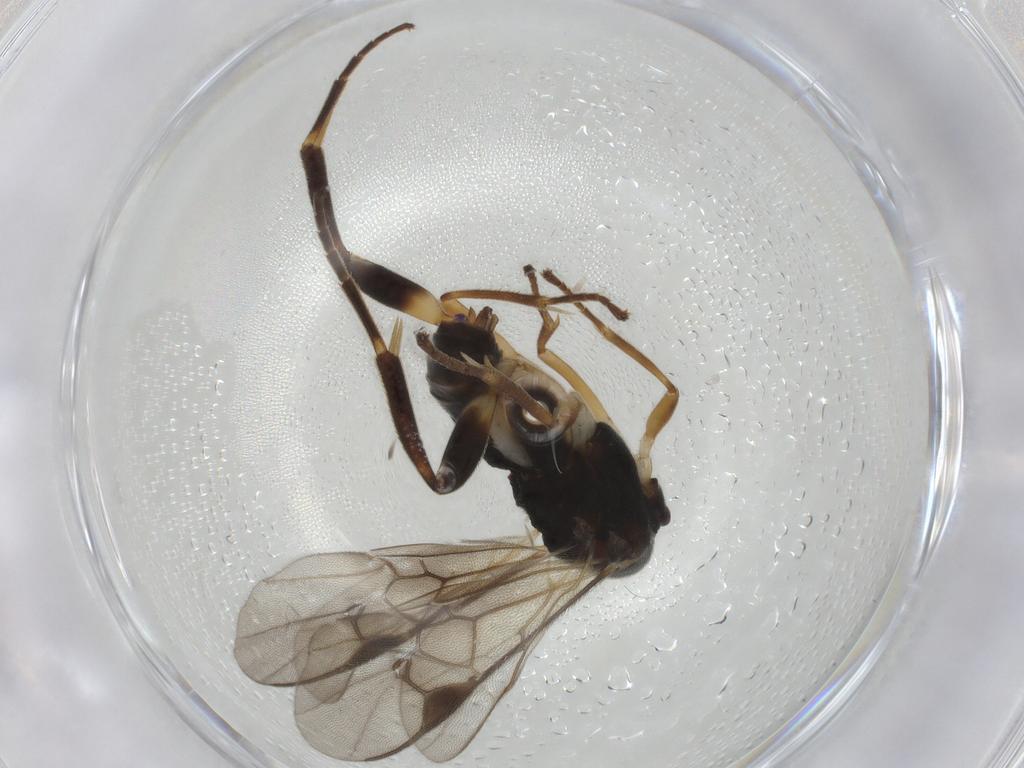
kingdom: Animalia
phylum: Arthropoda
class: Insecta
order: Hymenoptera
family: Braconidae
